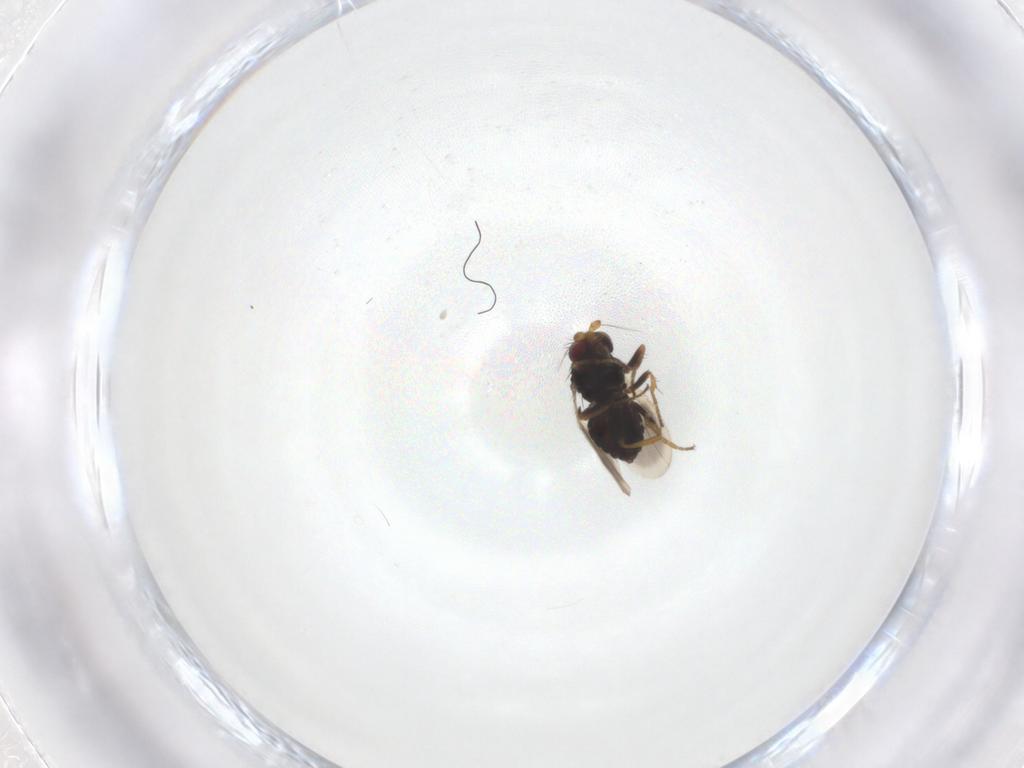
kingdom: Animalia
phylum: Arthropoda
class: Insecta
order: Diptera
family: Sphaeroceridae
